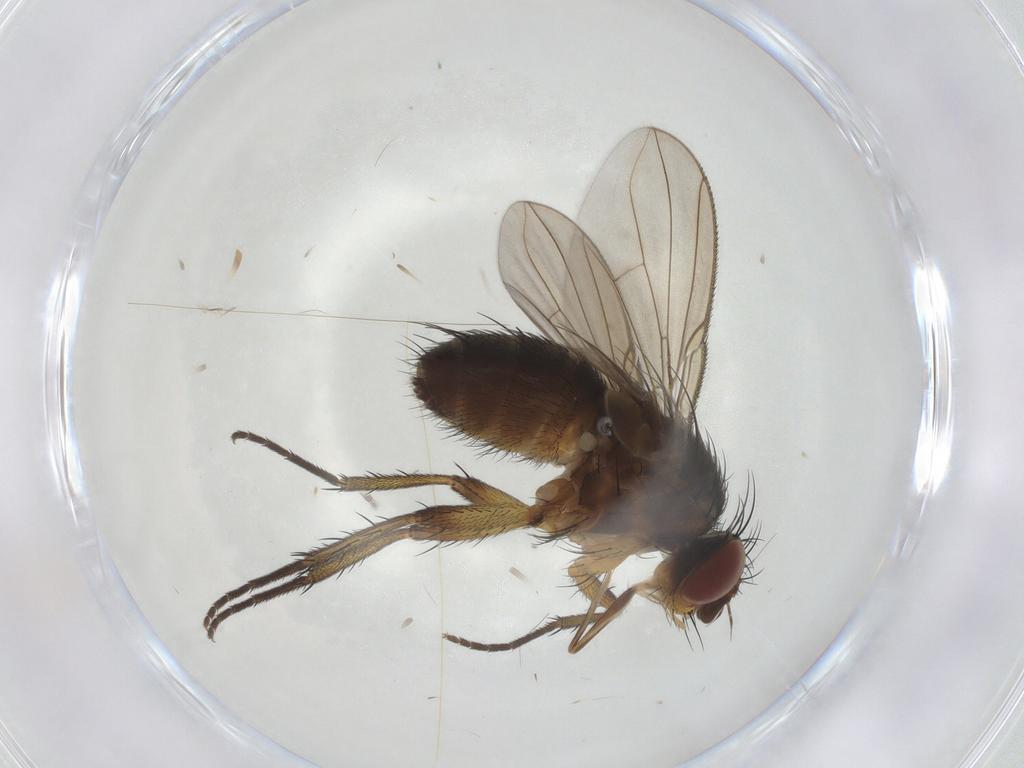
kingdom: Animalia
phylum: Arthropoda
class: Insecta
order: Diptera
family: Tachinidae
